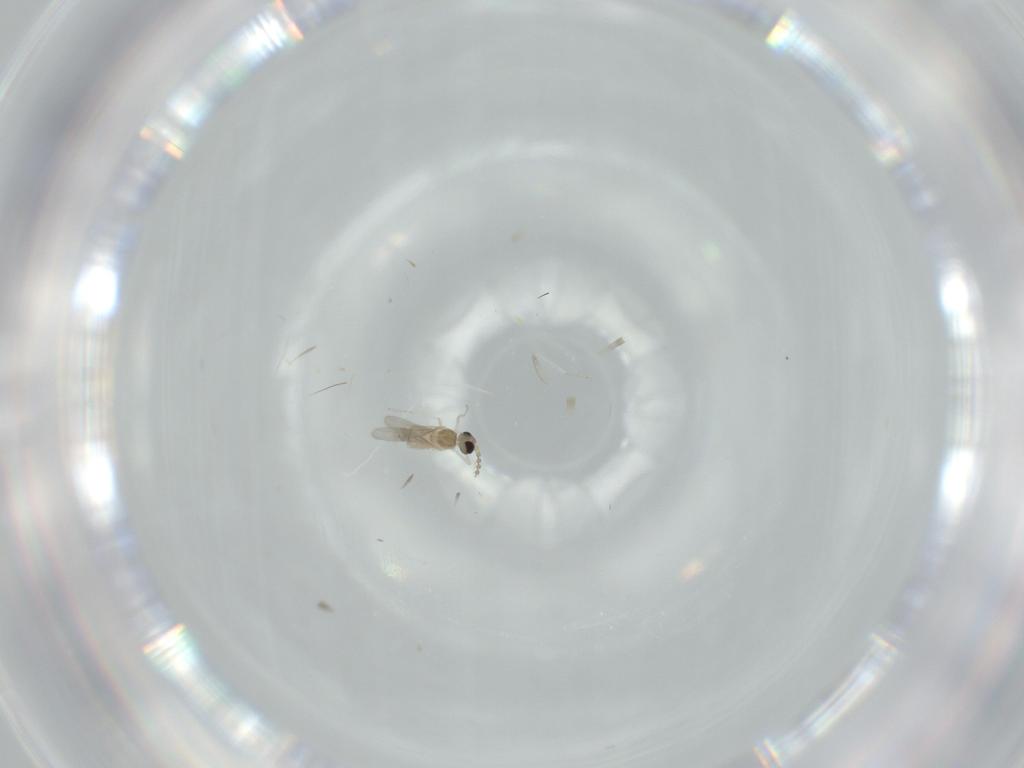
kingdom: Animalia
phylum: Arthropoda
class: Insecta
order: Diptera
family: Cecidomyiidae
